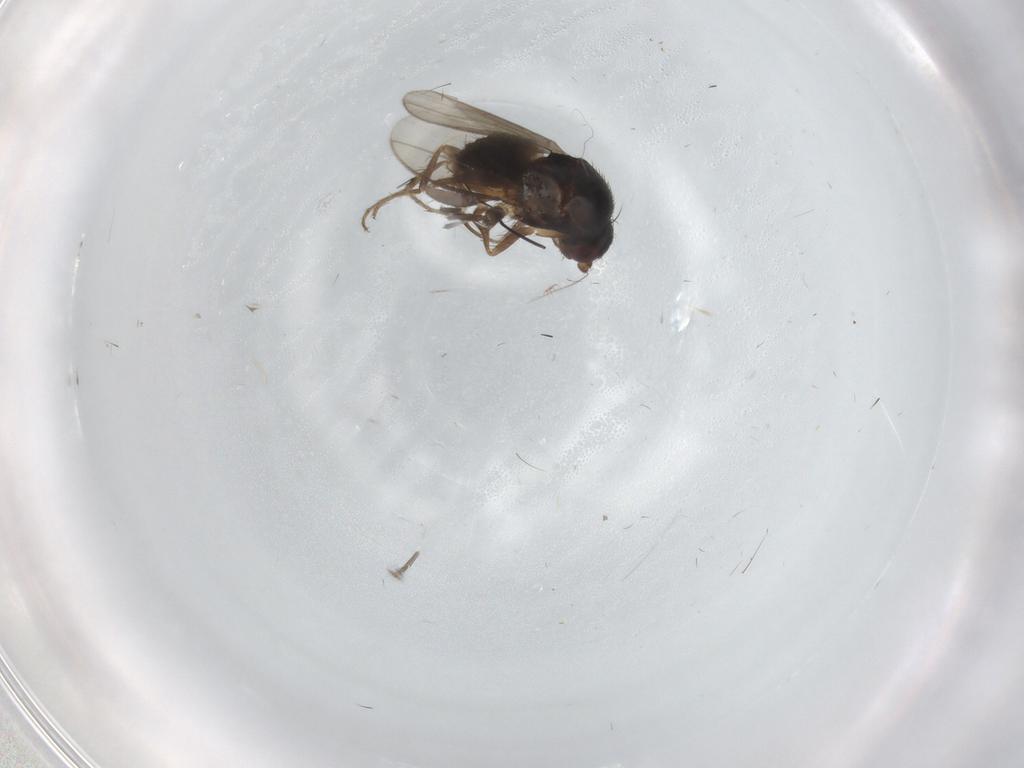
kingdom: Animalia
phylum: Arthropoda
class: Insecta
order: Diptera
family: Sphaeroceridae
